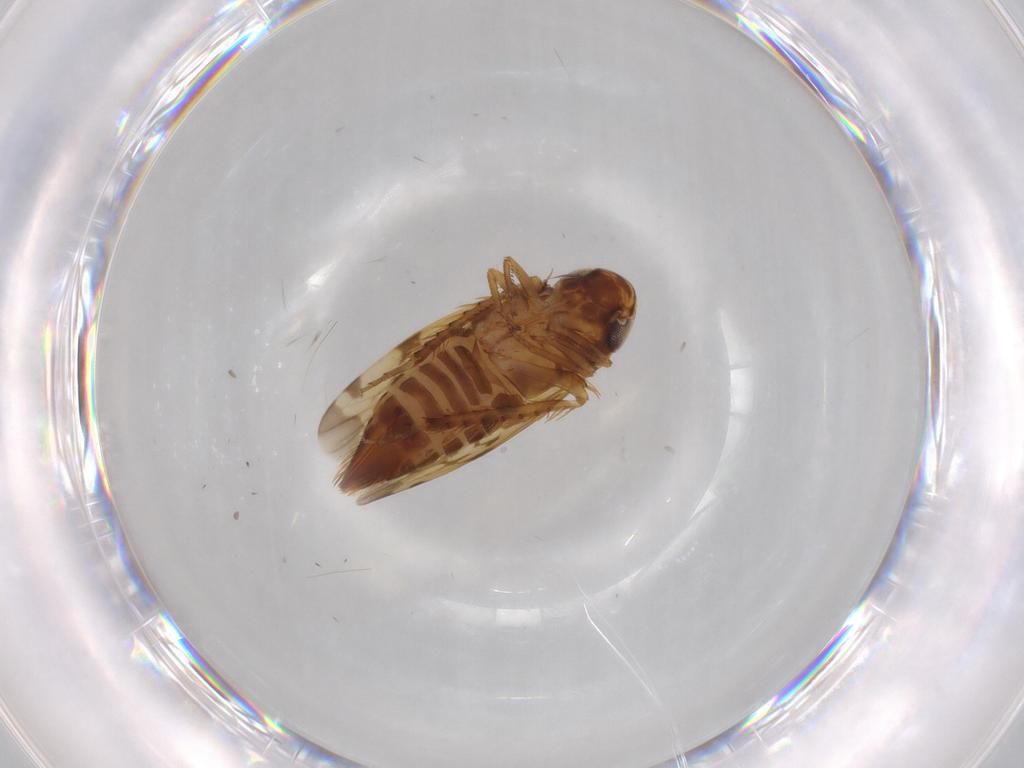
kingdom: Animalia
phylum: Arthropoda
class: Insecta
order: Hemiptera
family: Cicadellidae
